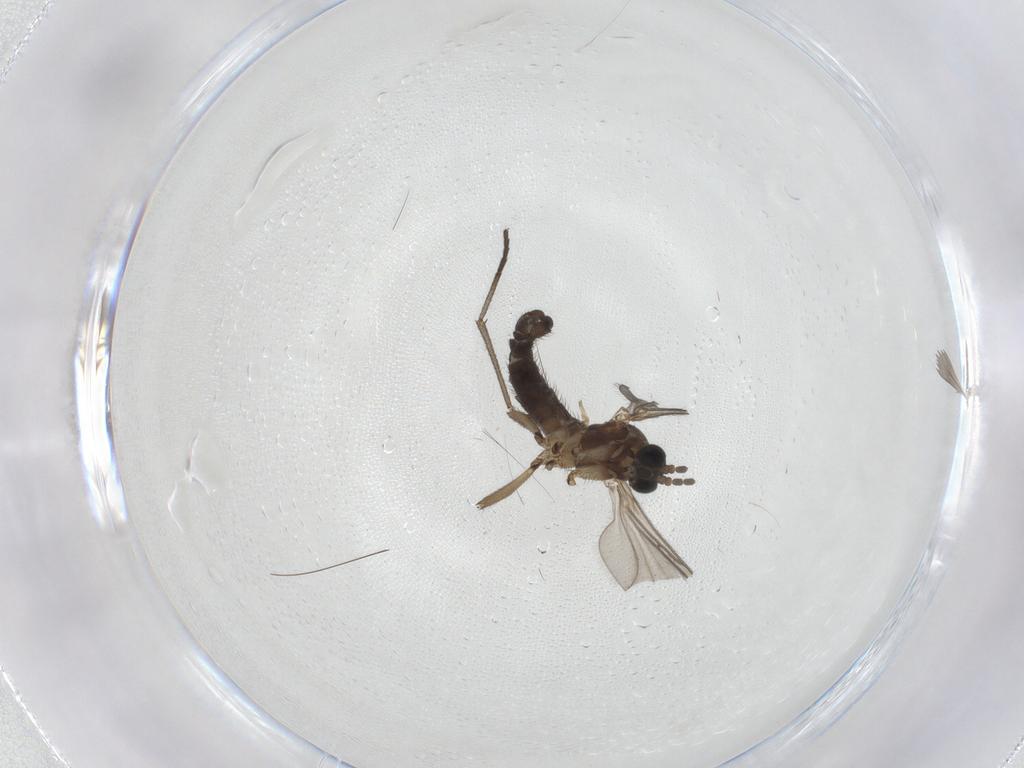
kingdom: Animalia
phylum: Arthropoda
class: Insecta
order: Diptera
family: Sciaridae
